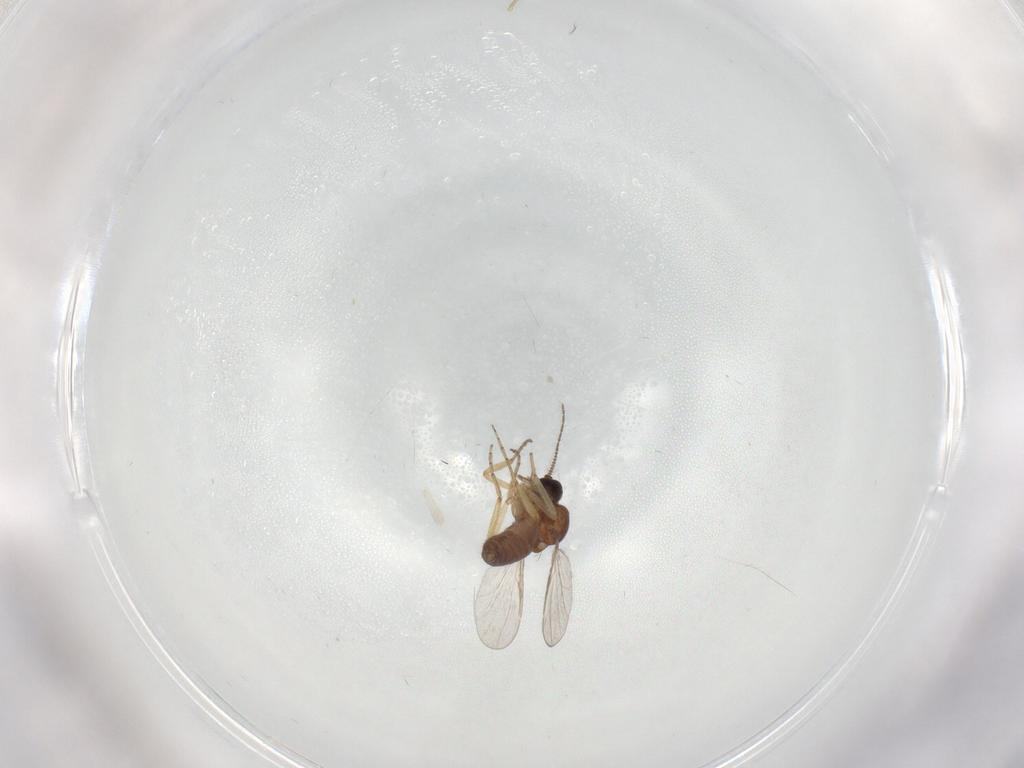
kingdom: Animalia
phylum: Arthropoda
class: Insecta
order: Diptera
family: Ceratopogonidae
